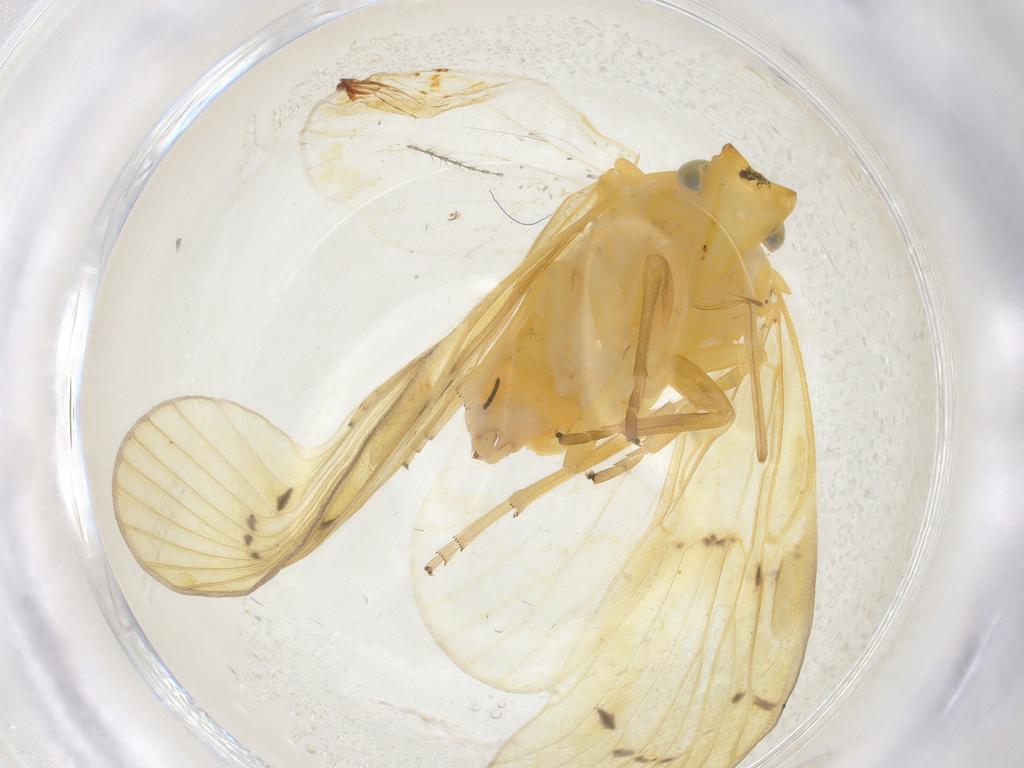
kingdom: Animalia
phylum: Arthropoda
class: Insecta
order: Hemiptera
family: Cixiidae
